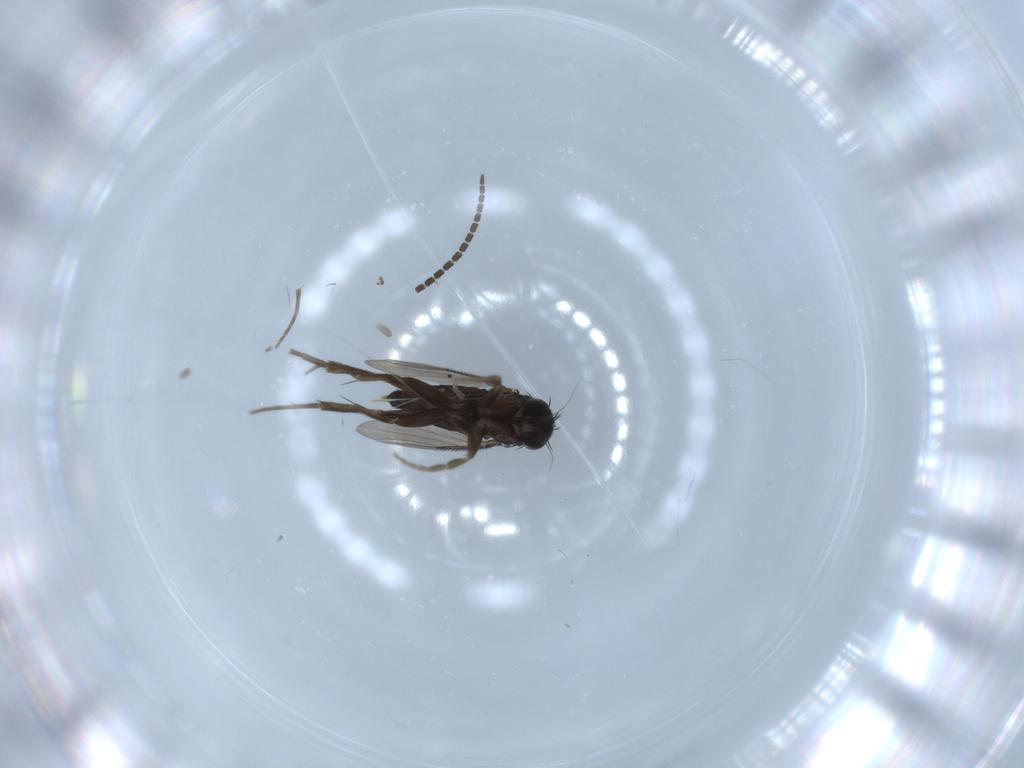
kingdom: Animalia
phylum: Arthropoda
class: Insecta
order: Diptera
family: Sciaridae
